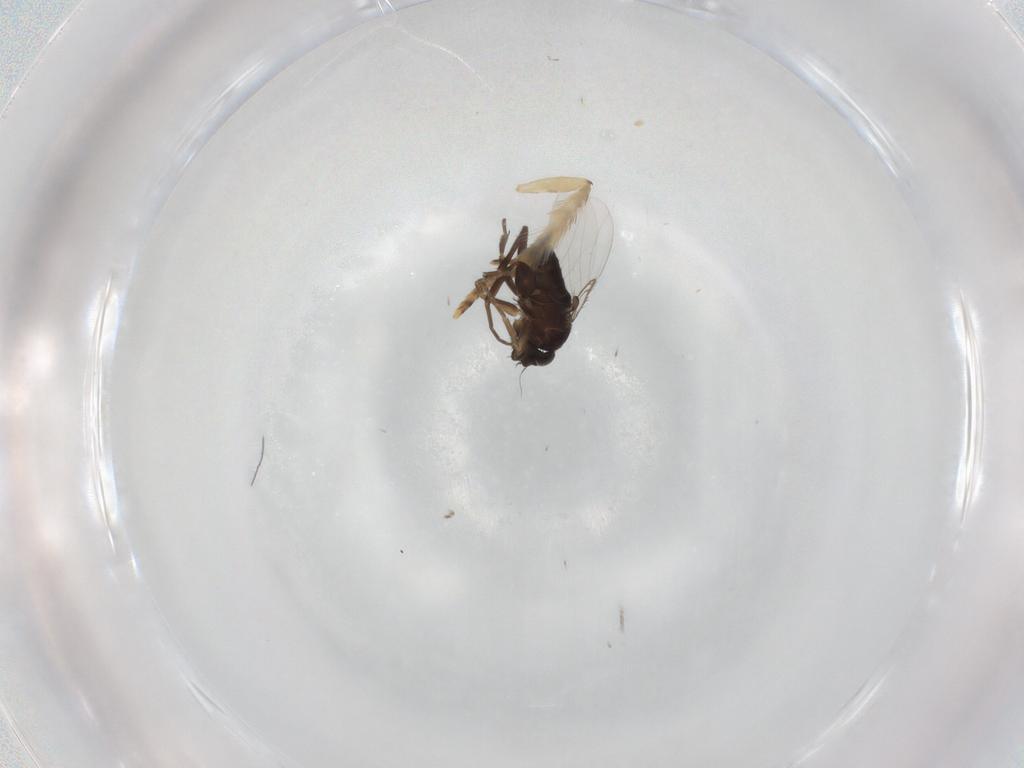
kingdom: Animalia
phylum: Arthropoda
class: Insecta
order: Diptera
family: Phoridae
